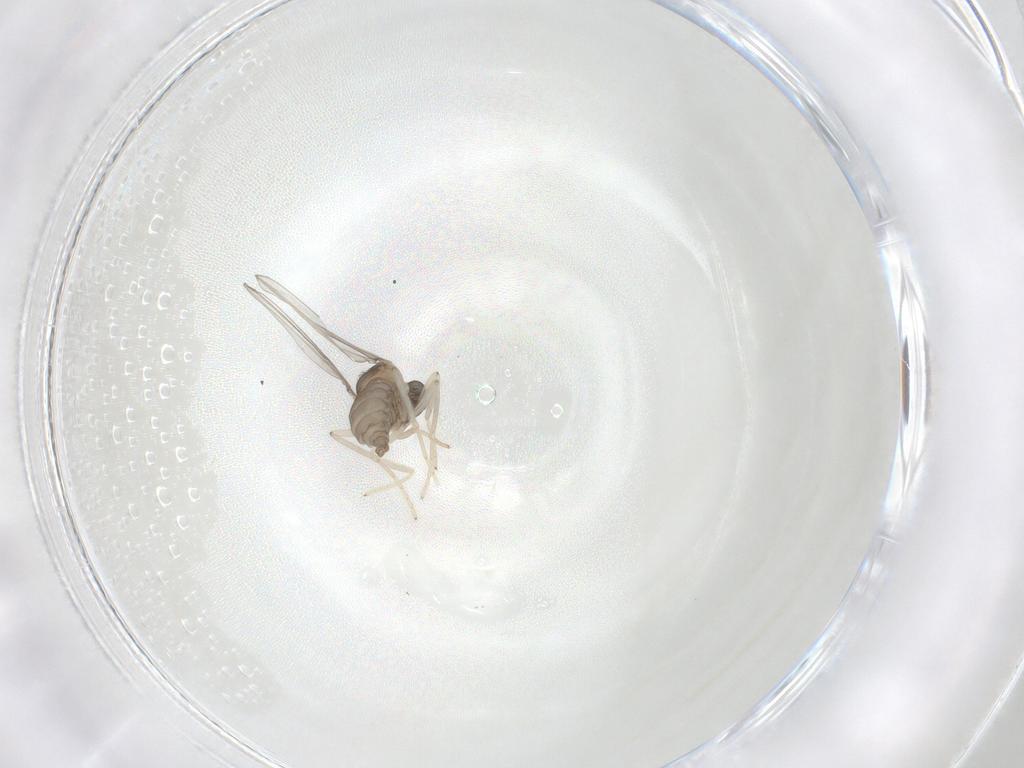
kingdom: Animalia
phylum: Arthropoda
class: Insecta
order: Diptera
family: Cecidomyiidae
